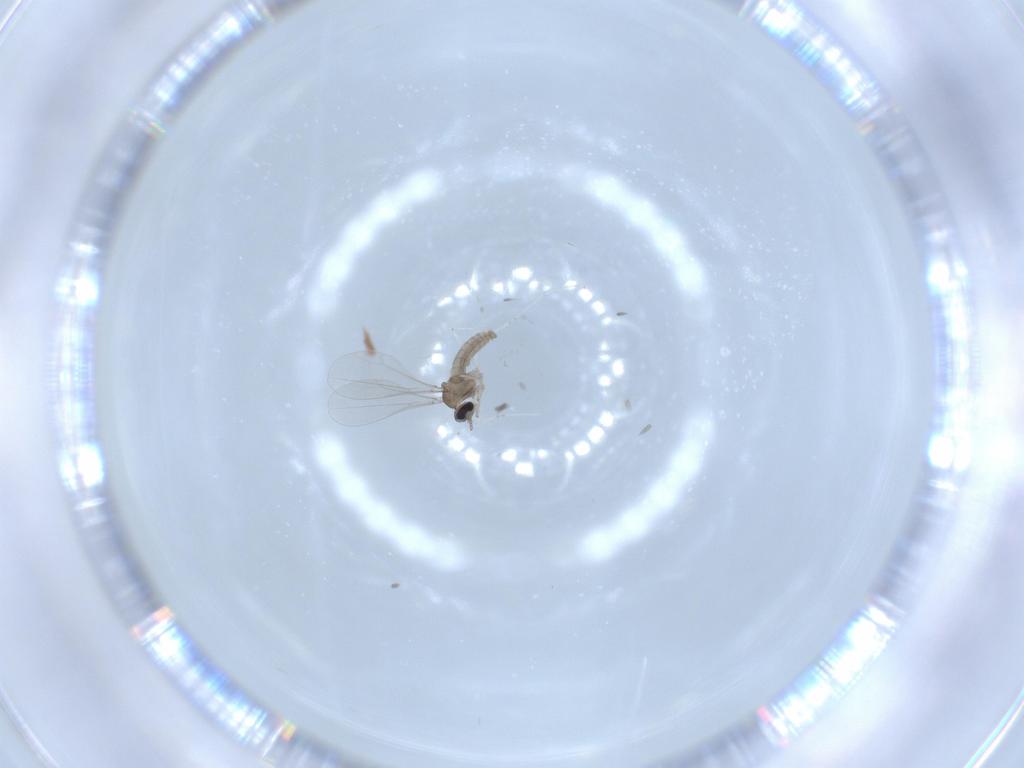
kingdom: Animalia
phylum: Arthropoda
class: Insecta
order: Diptera
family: Cecidomyiidae
